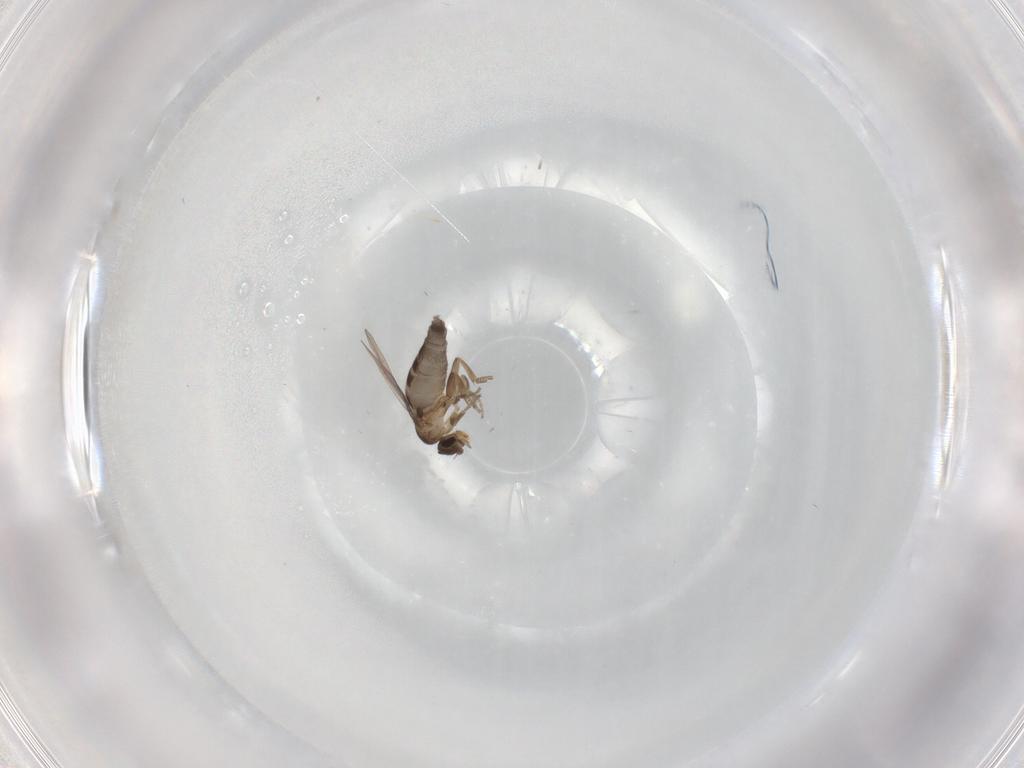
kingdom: Animalia
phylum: Arthropoda
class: Insecta
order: Diptera
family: Phoridae
